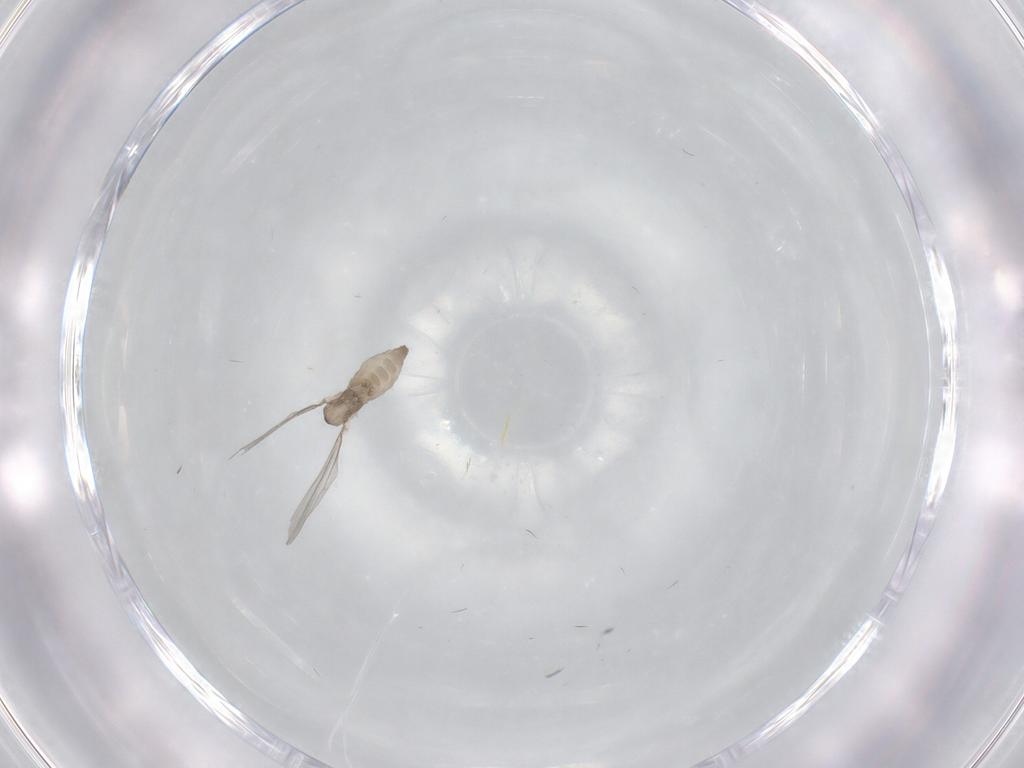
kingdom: Animalia
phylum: Arthropoda
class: Insecta
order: Diptera
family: Cecidomyiidae
